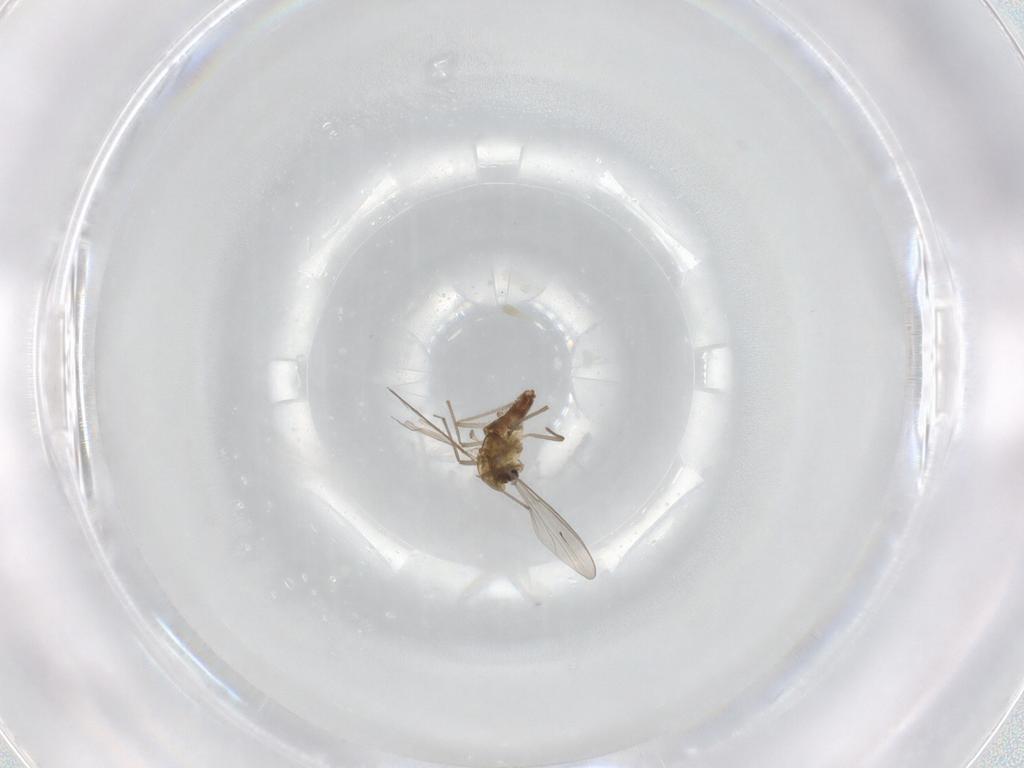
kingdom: Animalia
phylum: Arthropoda
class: Insecta
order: Diptera
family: Chironomidae
